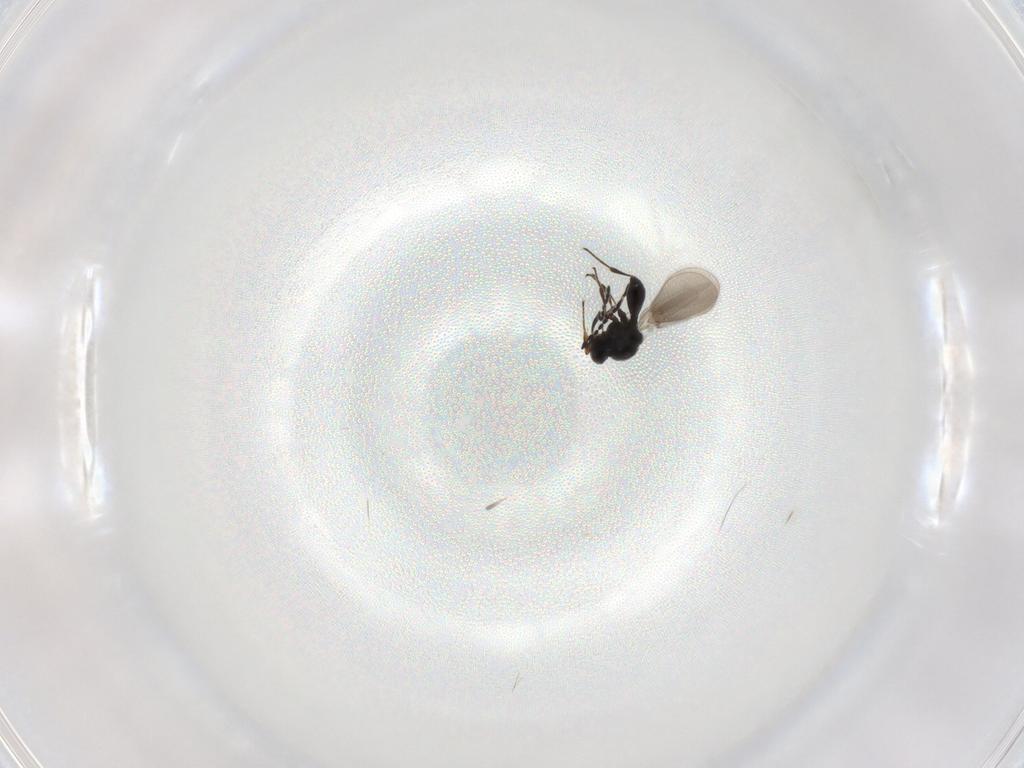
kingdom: Animalia
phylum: Arthropoda
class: Insecta
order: Hymenoptera
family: Platygastridae
